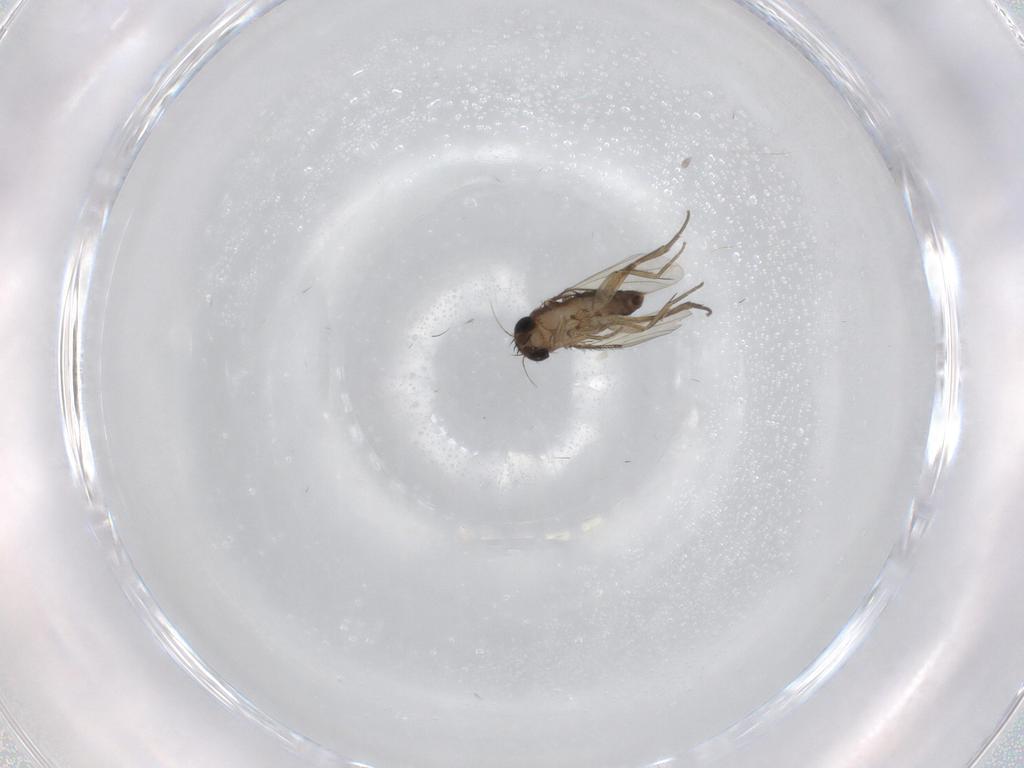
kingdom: Animalia
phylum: Arthropoda
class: Insecta
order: Diptera
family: Phoridae
